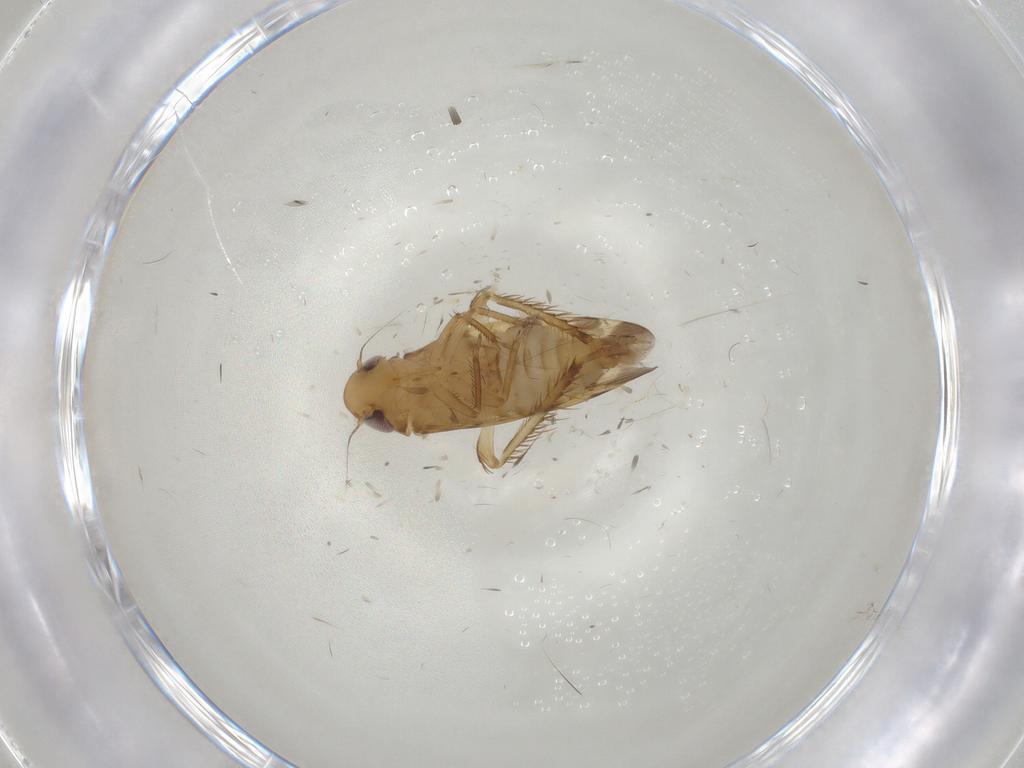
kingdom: Animalia
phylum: Arthropoda
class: Insecta
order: Hemiptera
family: Cicadellidae
